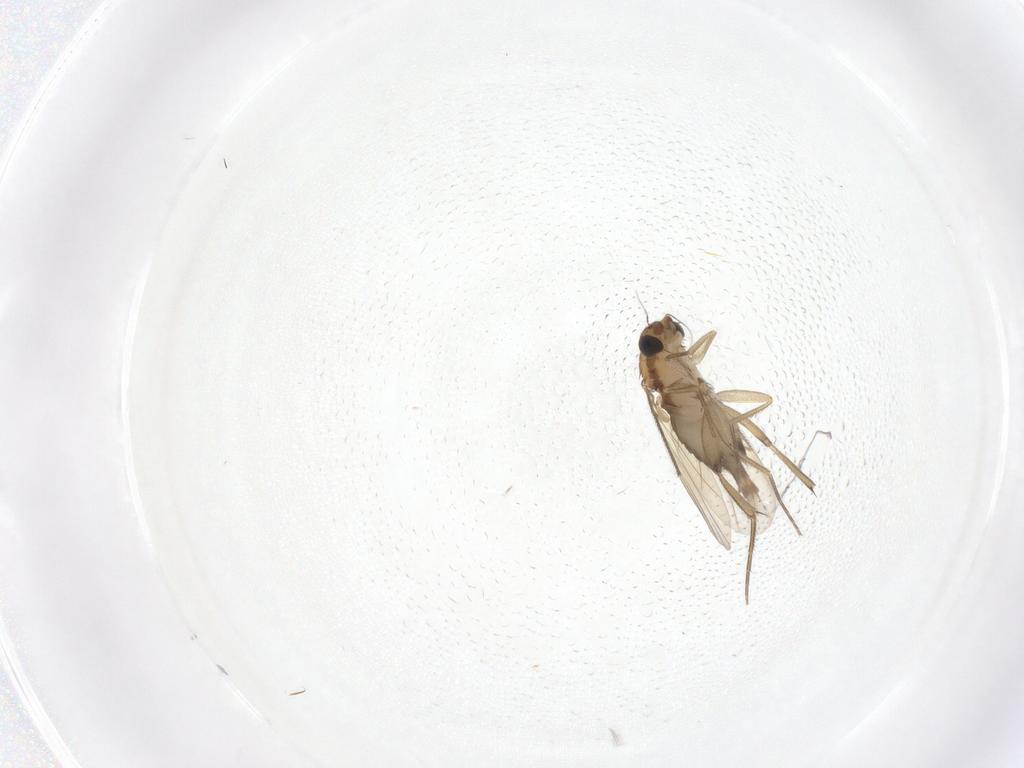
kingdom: Animalia
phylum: Arthropoda
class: Insecta
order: Diptera
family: Phoridae
